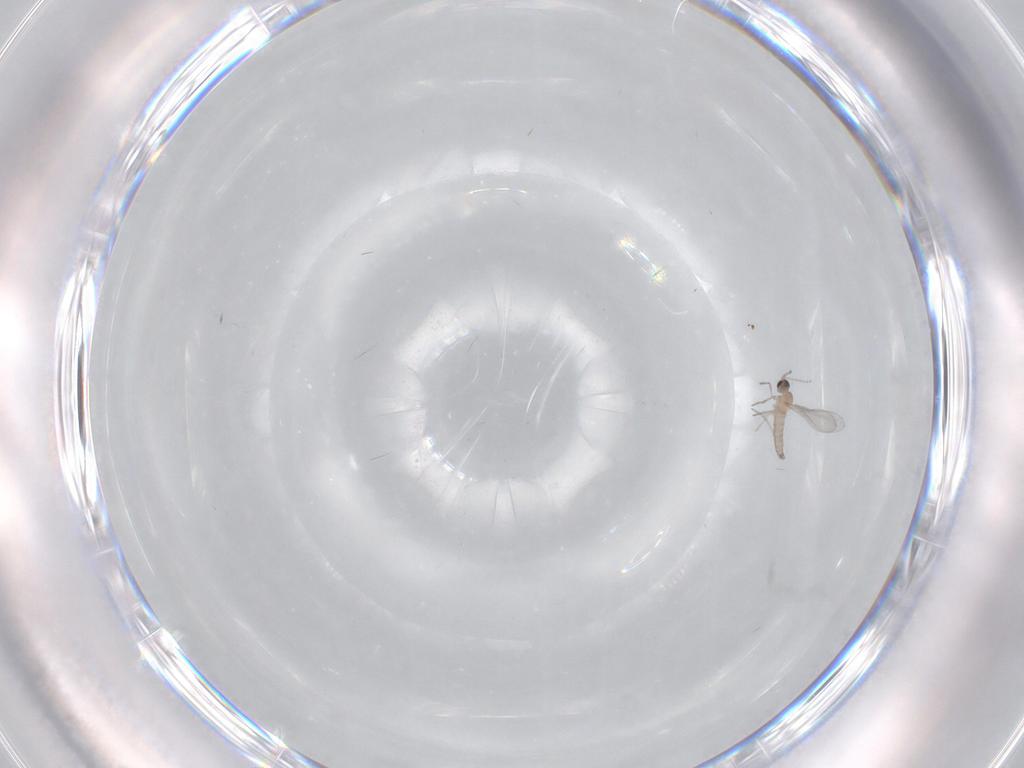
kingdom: Animalia
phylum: Arthropoda
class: Insecta
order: Diptera
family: Cecidomyiidae
